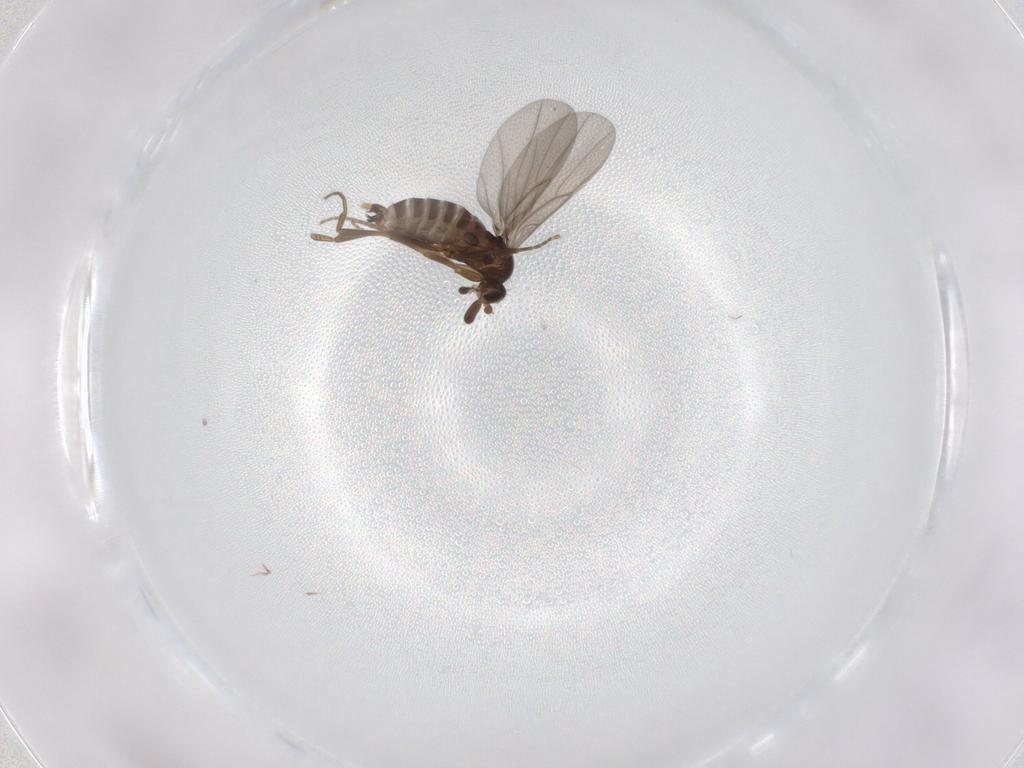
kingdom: Animalia
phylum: Arthropoda
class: Insecta
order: Diptera
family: Chironomidae
